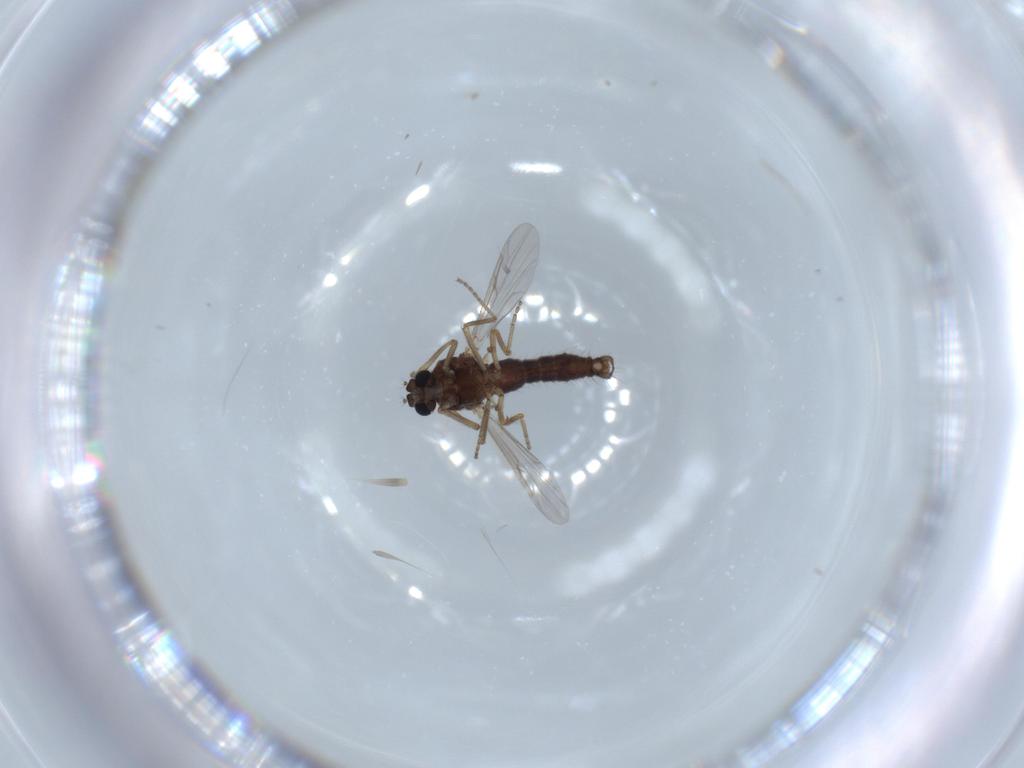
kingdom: Animalia
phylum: Arthropoda
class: Insecta
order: Diptera
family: Ceratopogonidae
